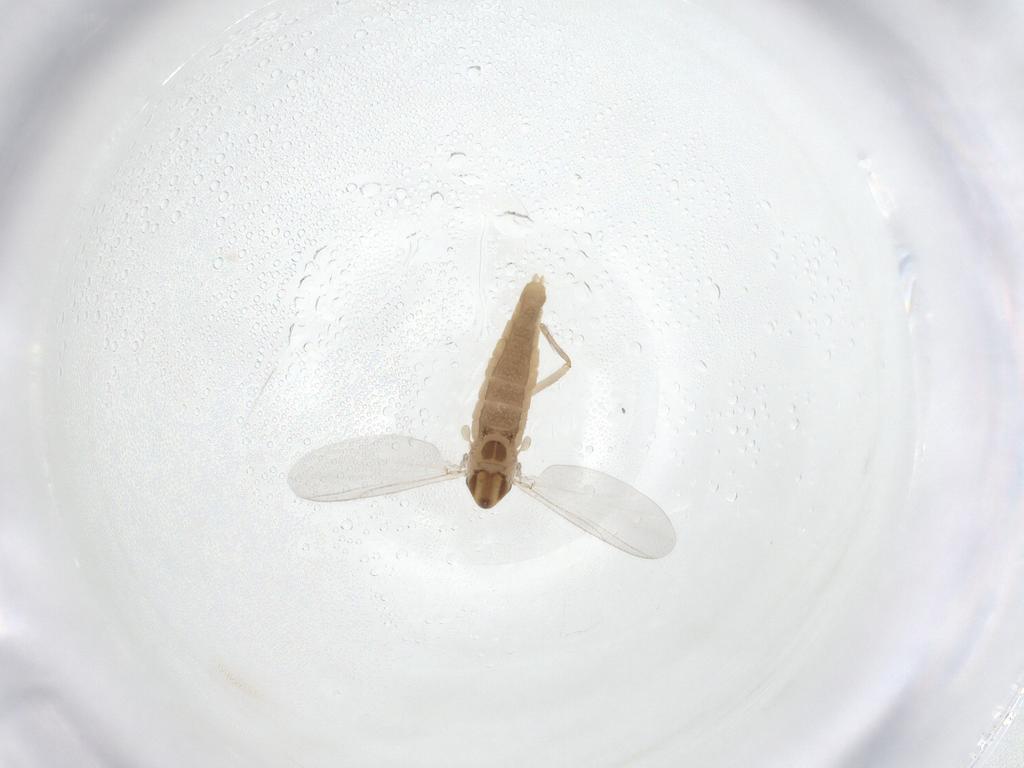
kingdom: Animalia
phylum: Arthropoda
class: Insecta
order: Diptera
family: Chironomidae
